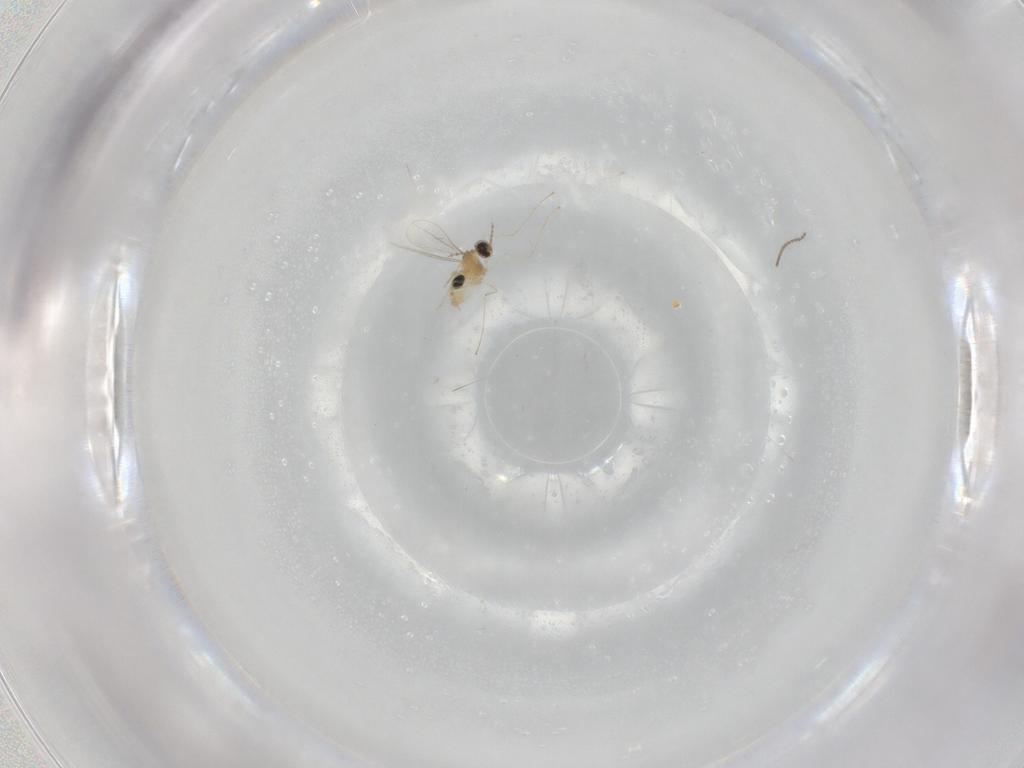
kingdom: Animalia
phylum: Arthropoda
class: Insecta
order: Diptera
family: Cecidomyiidae
